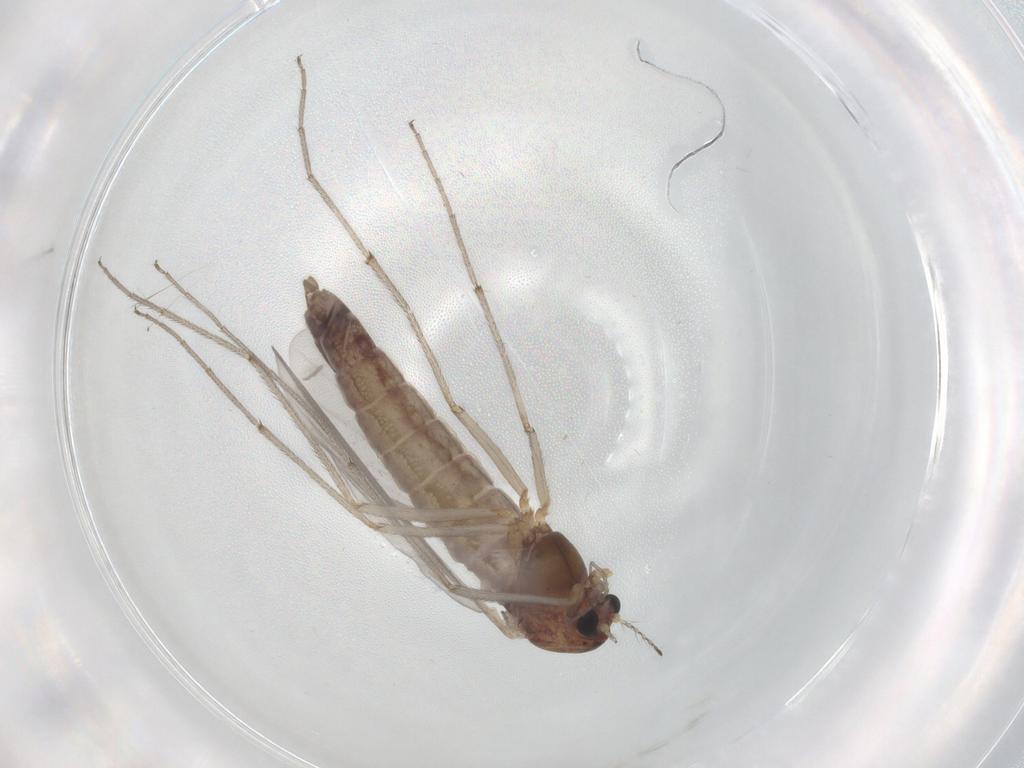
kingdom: Animalia
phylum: Arthropoda
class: Insecta
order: Diptera
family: Chironomidae
